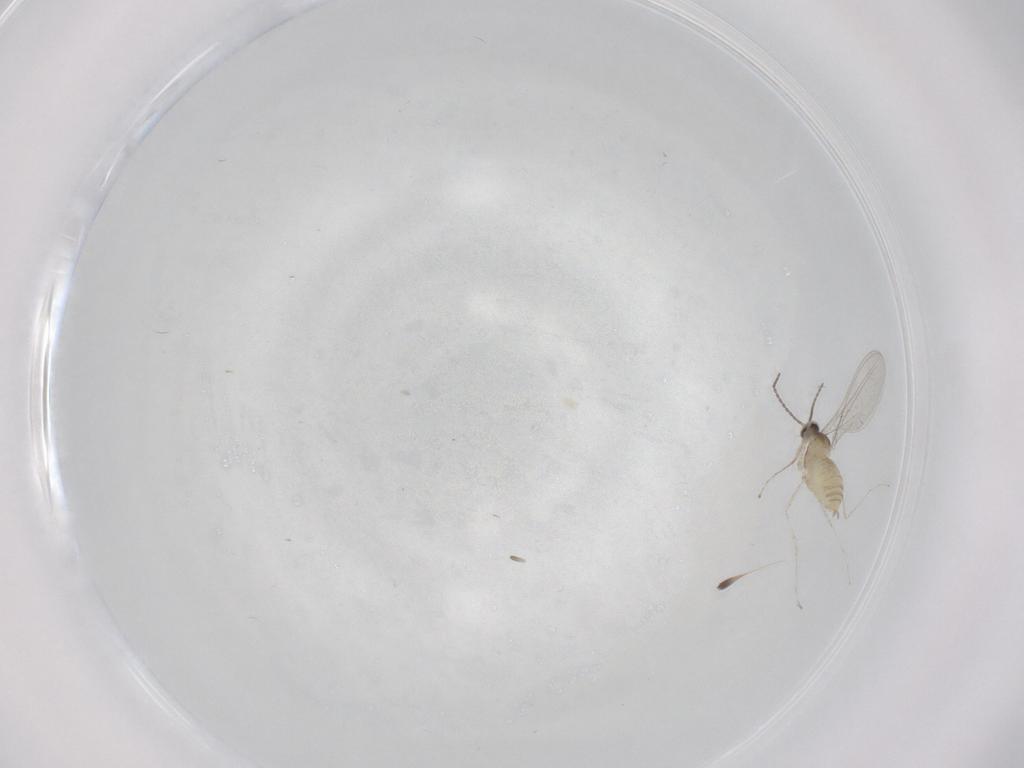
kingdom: Animalia
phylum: Arthropoda
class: Insecta
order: Diptera
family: Cecidomyiidae
